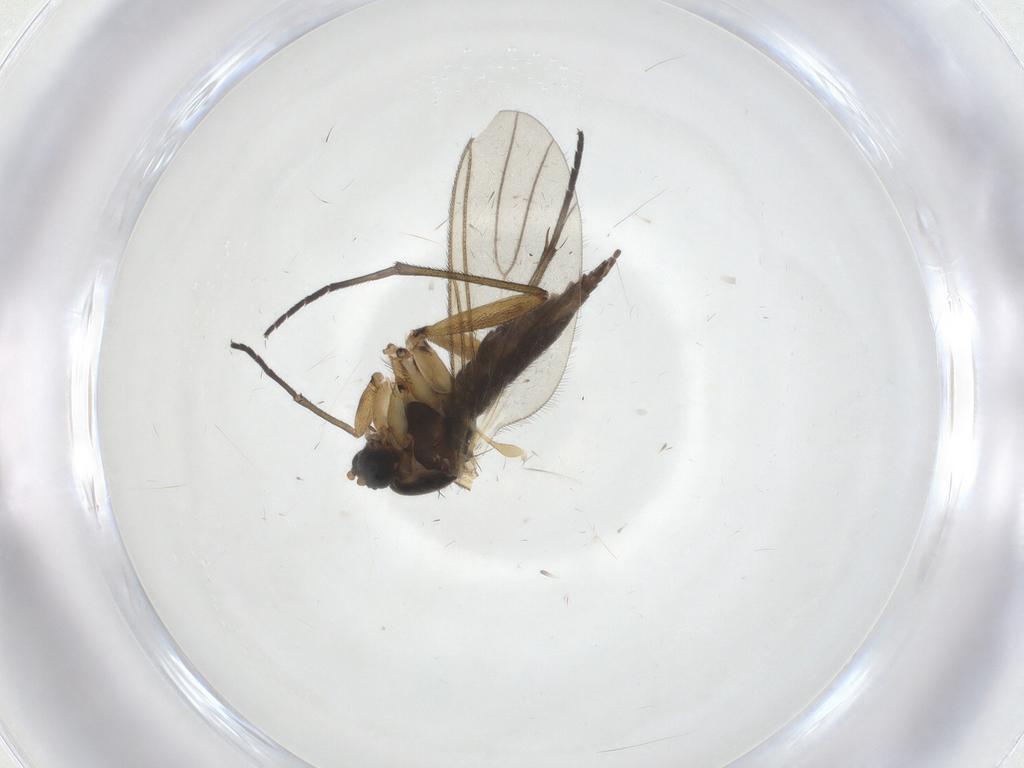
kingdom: Animalia
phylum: Arthropoda
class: Insecta
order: Diptera
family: Sciaridae
